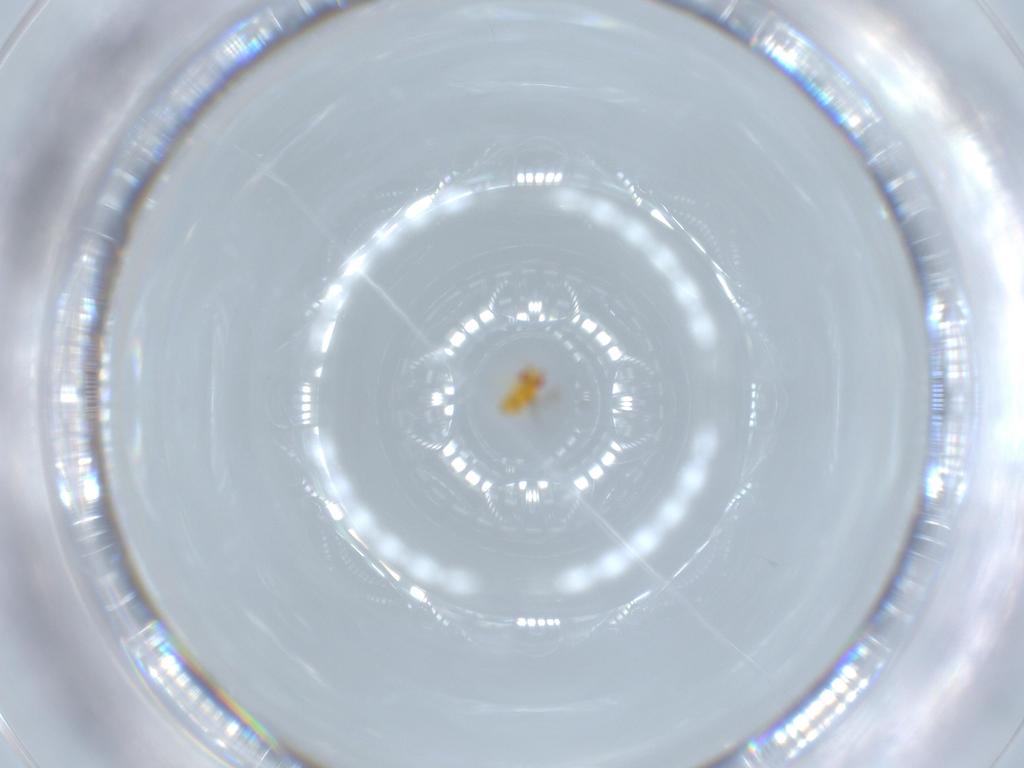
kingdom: Animalia
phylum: Arthropoda
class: Insecta
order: Hymenoptera
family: Trichogrammatidae
